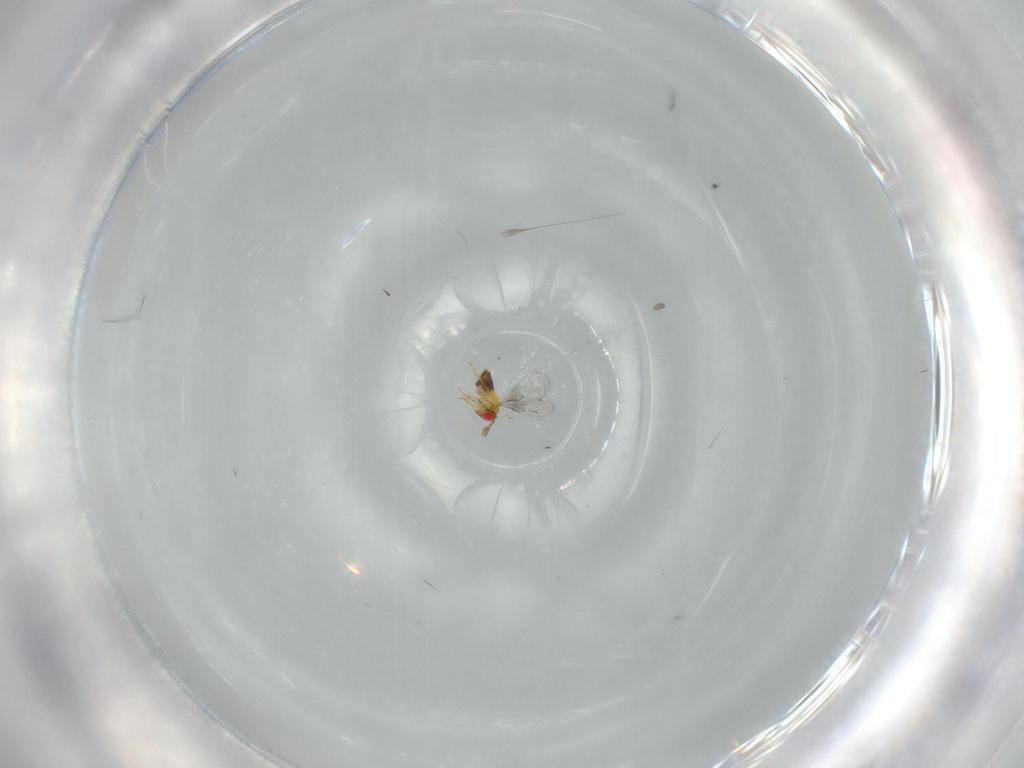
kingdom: Animalia
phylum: Arthropoda
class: Insecta
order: Hymenoptera
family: Trichogrammatidae
